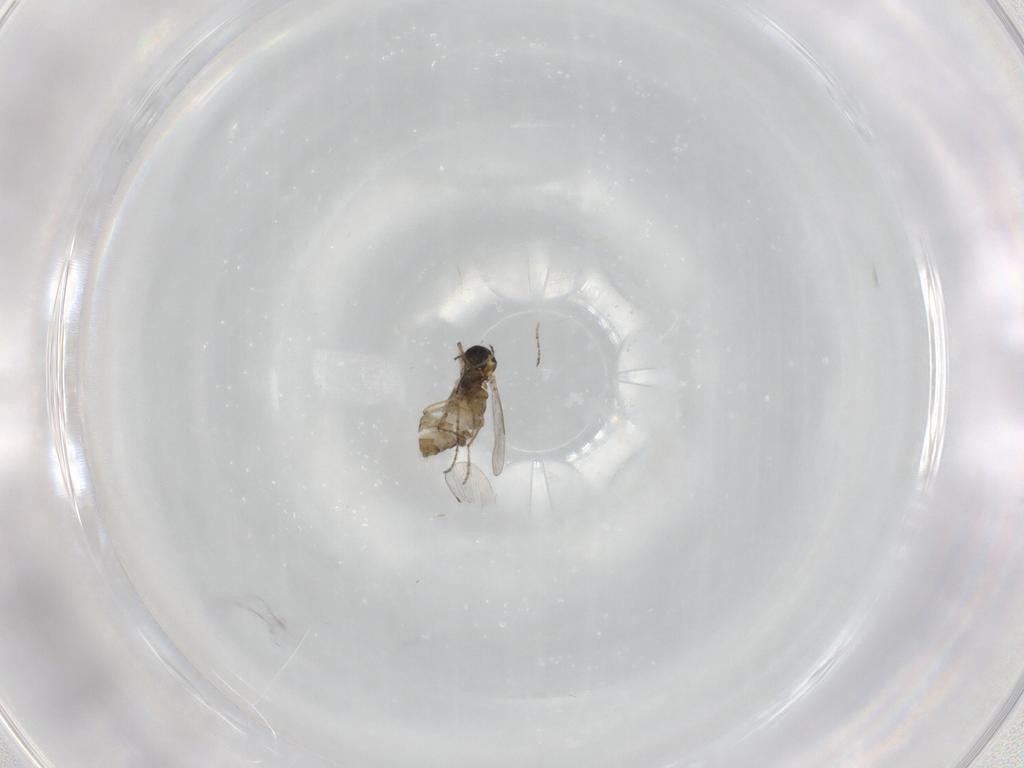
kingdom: Animalia
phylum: Arthropoda
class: Insecta
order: Diptera
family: Ceratopogonidae
